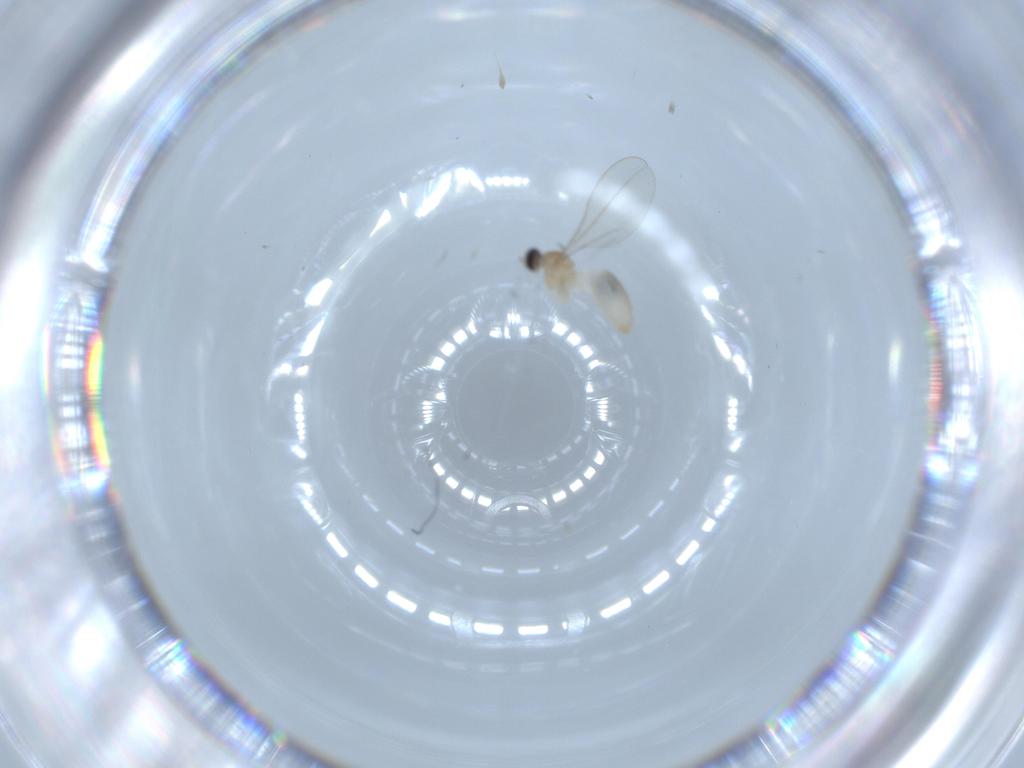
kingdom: Animalia
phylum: Arthropoda
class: Insecta
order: Diptera
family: Cecidomyiidae
